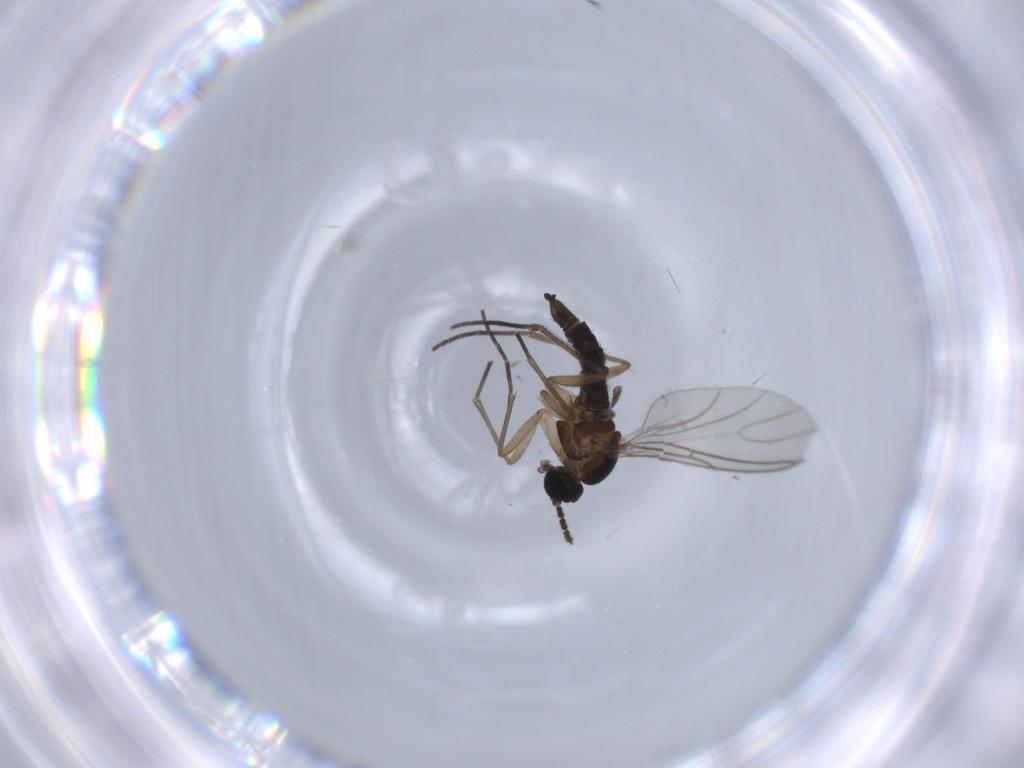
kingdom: Animalia
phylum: Arthropoda
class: Insecta
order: Diptera
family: Sciaridae
